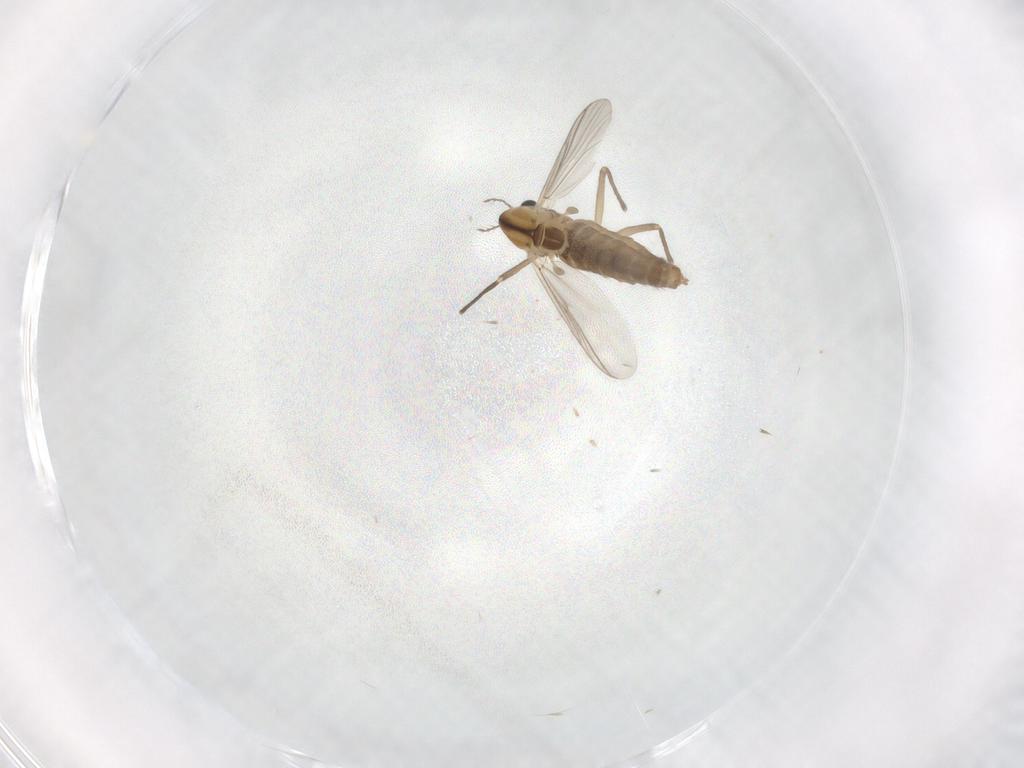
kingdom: Animalia
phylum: Arthropoda
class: Insecta
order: Diptera
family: Chironomidae
